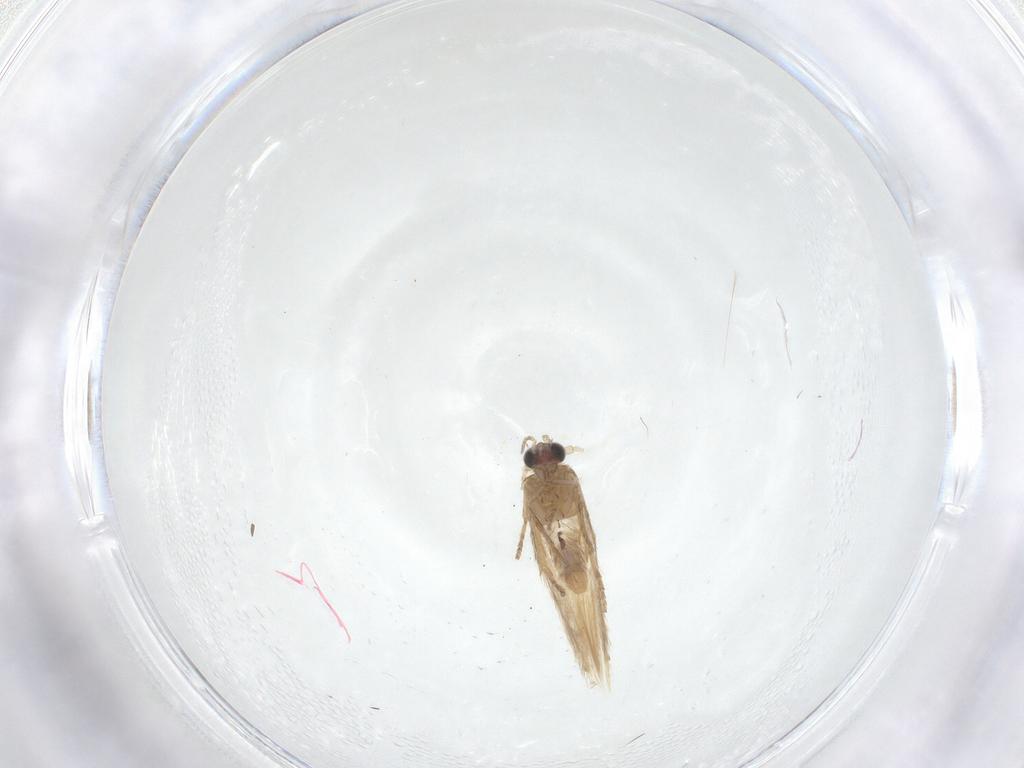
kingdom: Animalia
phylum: Arthropoda
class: Insecta
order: Lepidoptera
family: Nepticulidae
